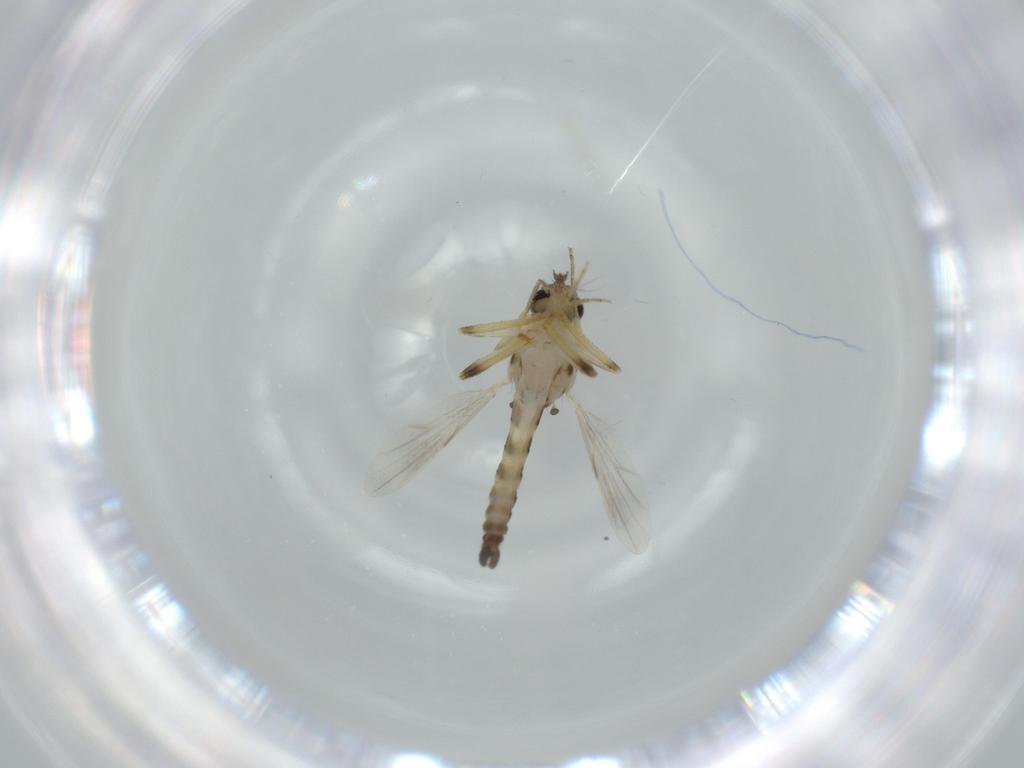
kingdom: Animalia
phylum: Arthropoda
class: Insecta
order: Diptera
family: Ceratopogonidae
